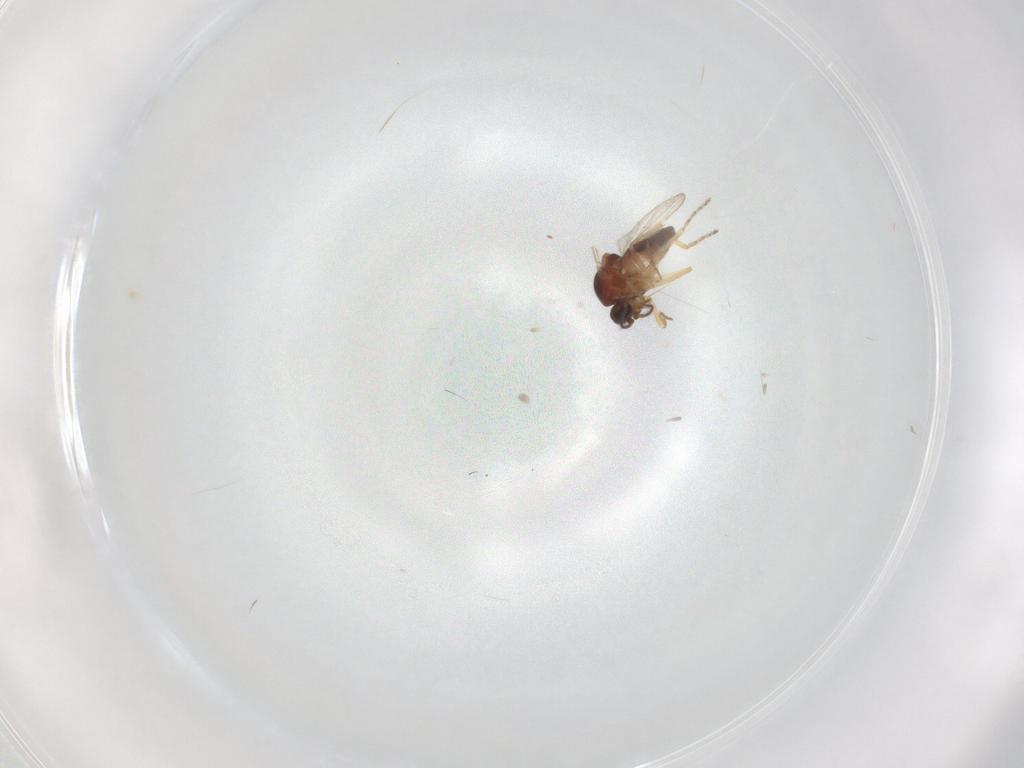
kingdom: Animalia
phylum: Arthropoda
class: Insecta
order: Diptera
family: Ceratopogonidae
